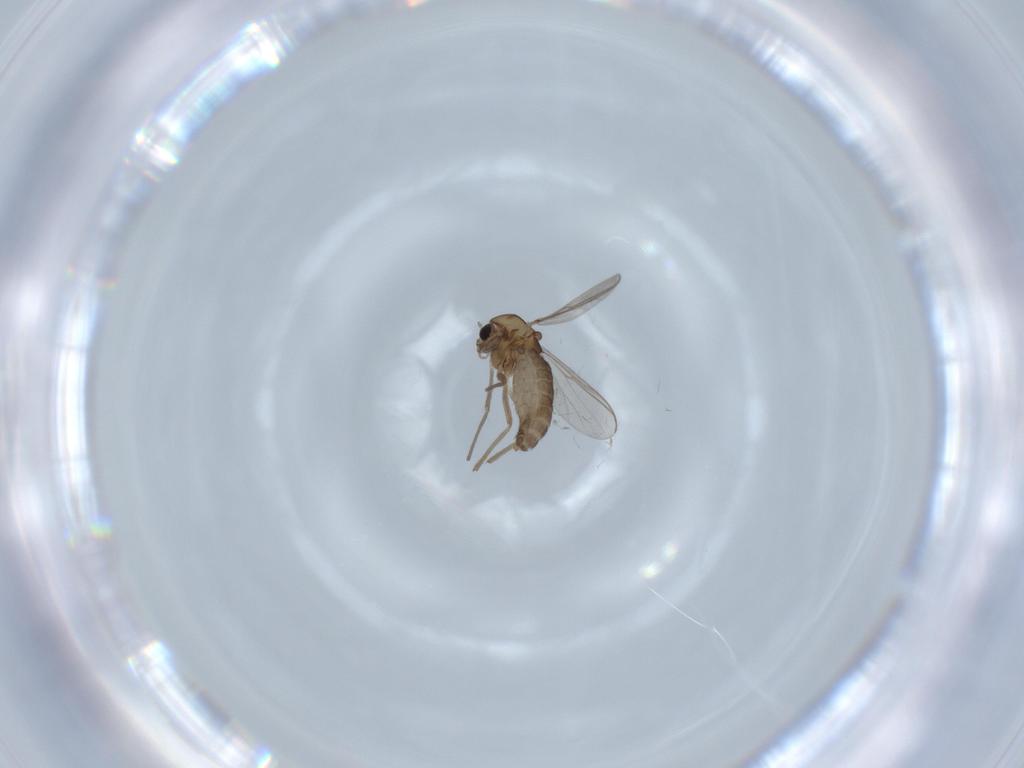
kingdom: Animalia
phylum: Arthropoda
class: Insecta
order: Diptera
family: Chironomidae
